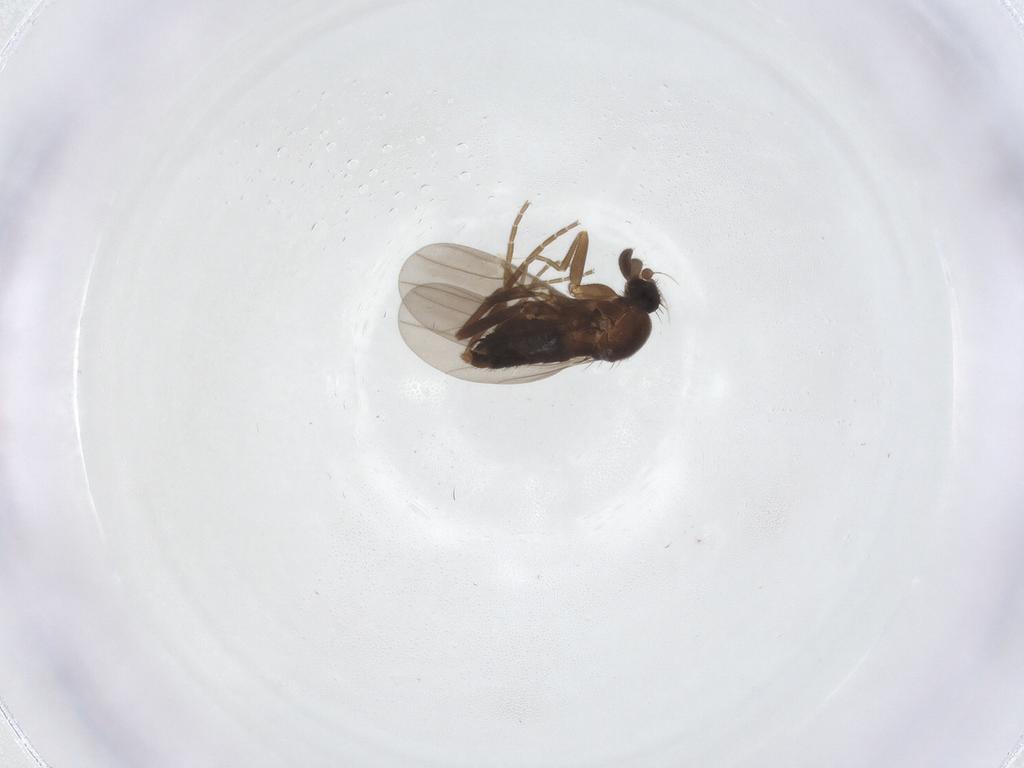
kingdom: Animalia
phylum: Arthropoda
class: Insecta
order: Diptera
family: Phoridae
